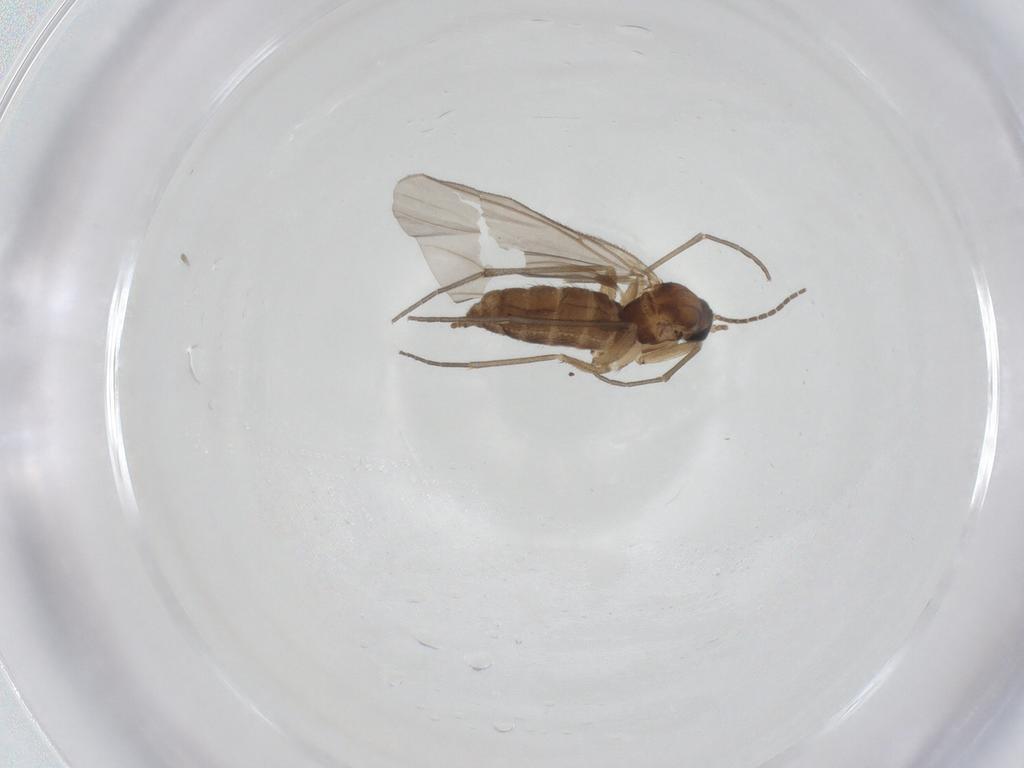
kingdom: Animalia
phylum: Arthropoda
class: Insecta
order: Diptera
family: Sciaridae
